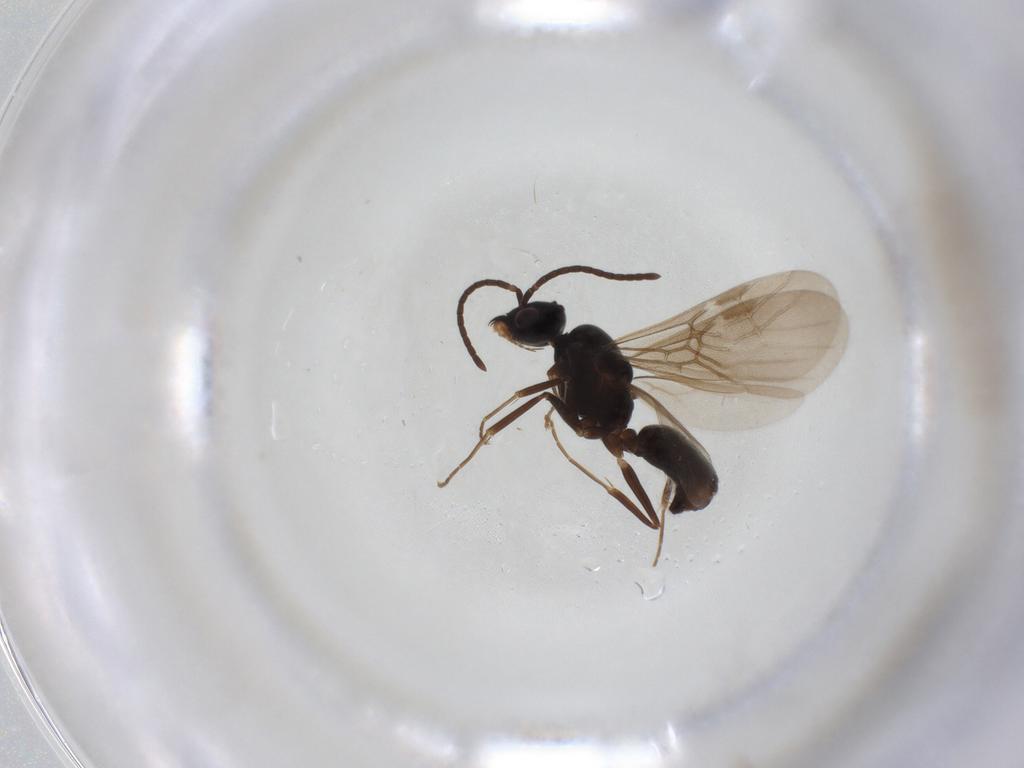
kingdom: Animalia
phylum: Arthropoda
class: Insecta
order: Hymenoptera
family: Formicidae
